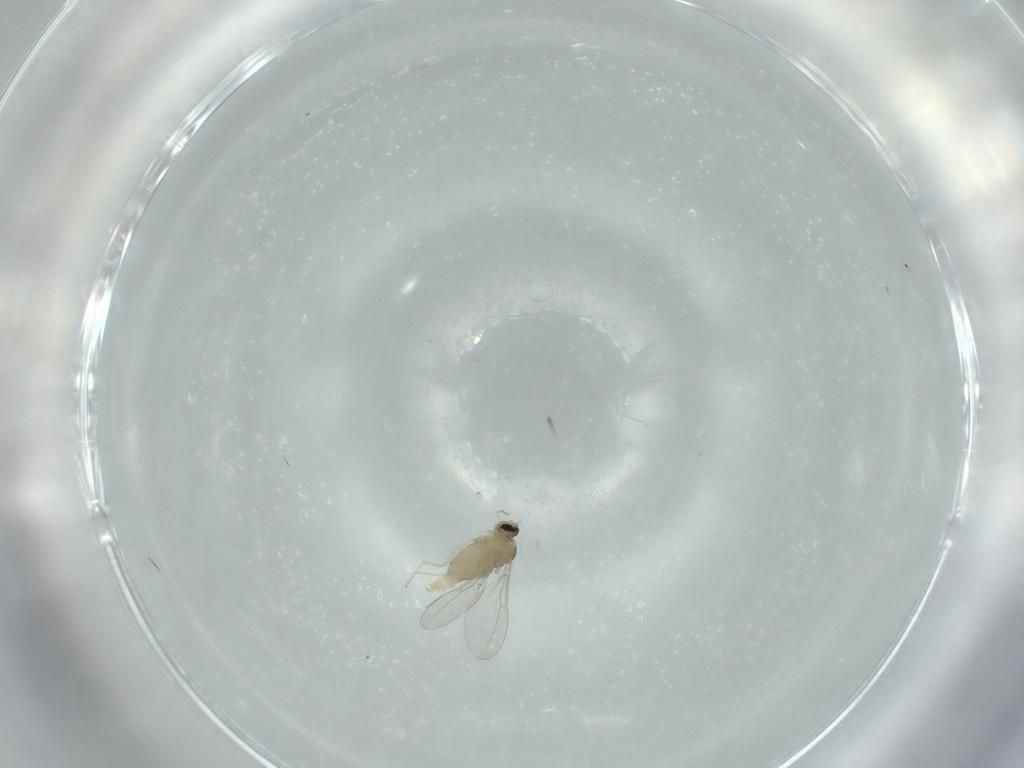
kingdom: Animalia
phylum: Arthropoda
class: Insecta
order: Diptera
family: Cecidomyiidae
